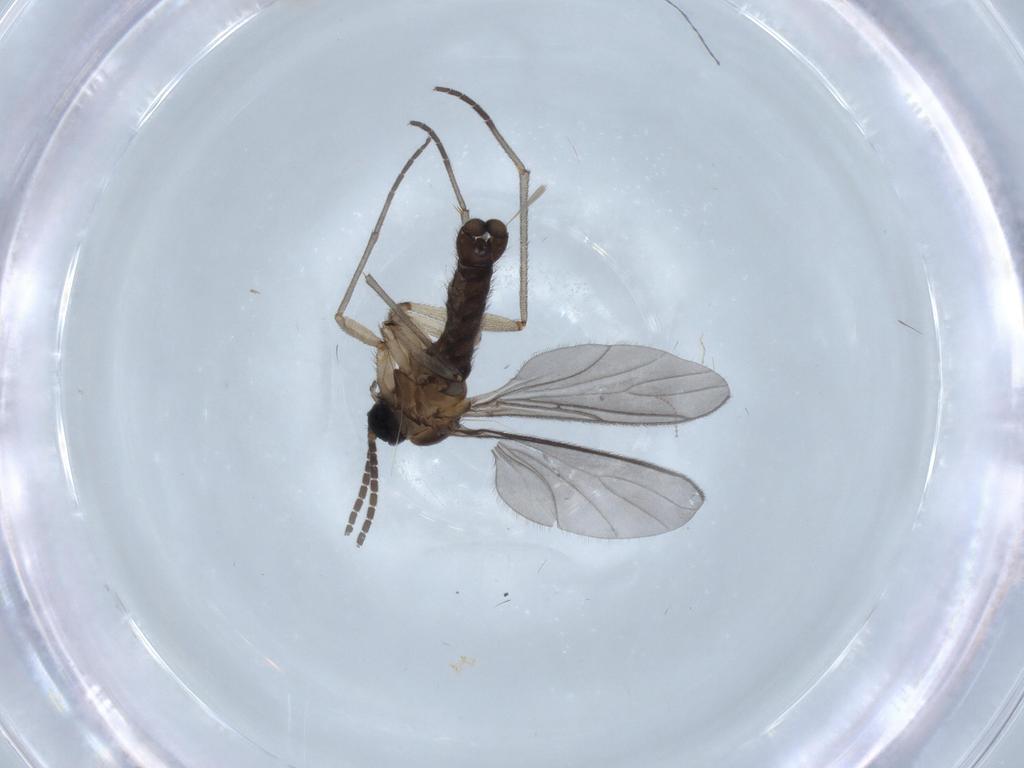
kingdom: Animalia
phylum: Arthropoda
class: Insecta
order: Diptera
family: Sciaridae
